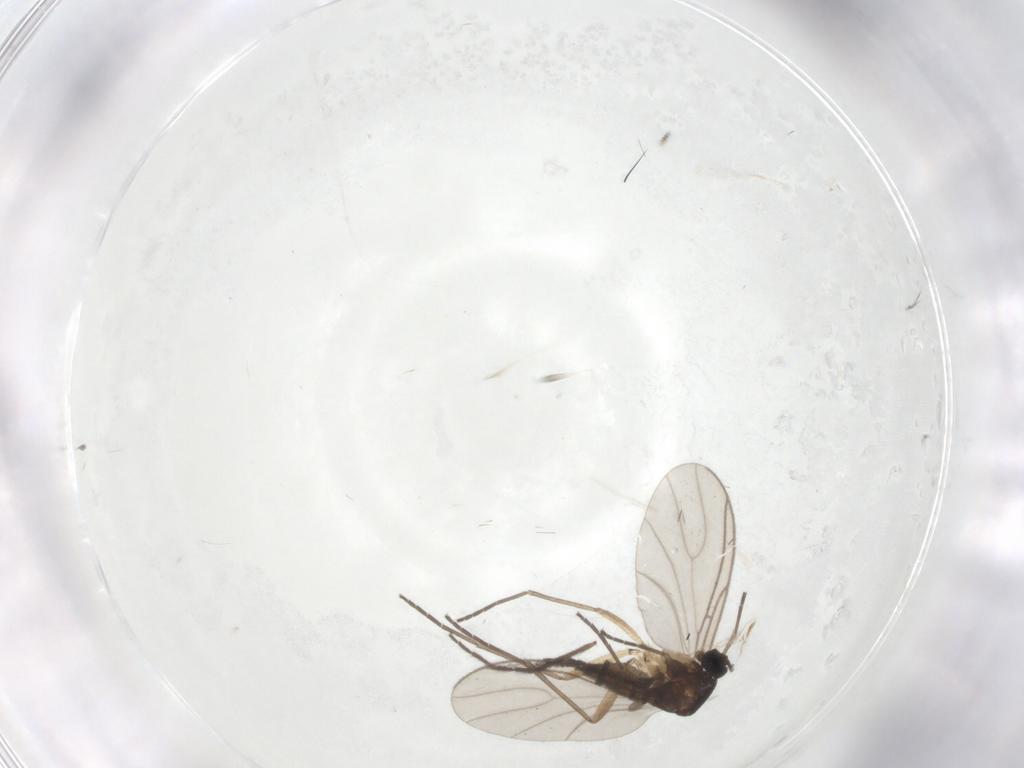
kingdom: Animalia
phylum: Arthropoda
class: Insecta
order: Diptera
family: Sciaridae
